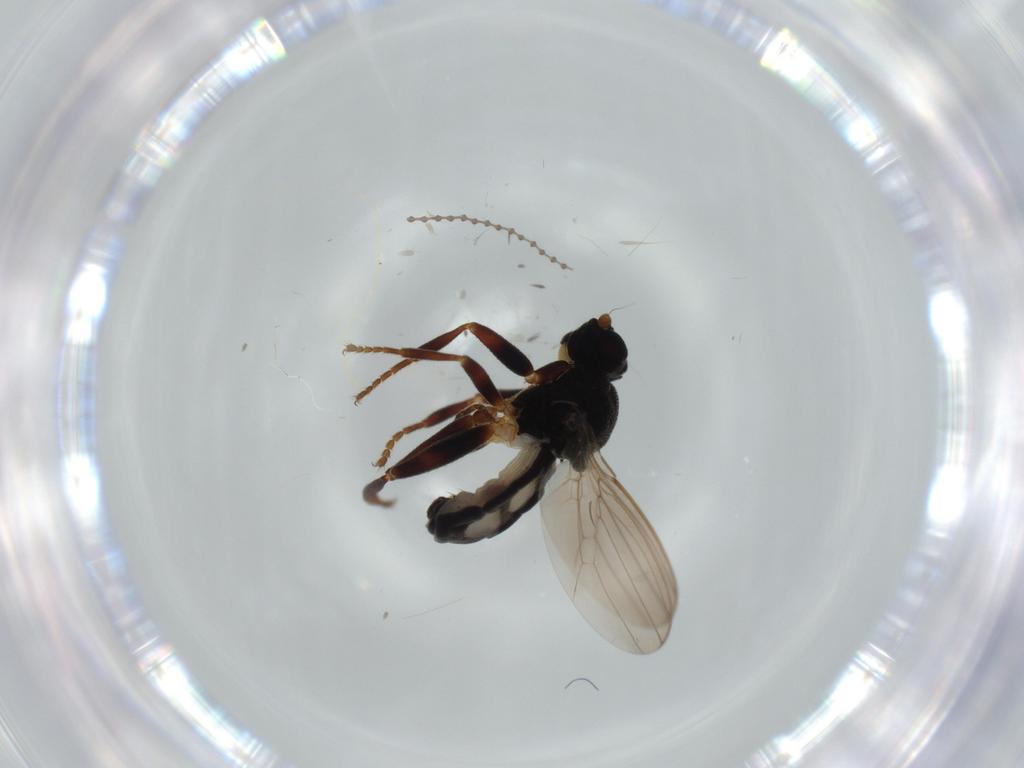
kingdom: Animalia
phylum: Arthropoda
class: Insecta
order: Diptera
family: Sphaeroceridae
